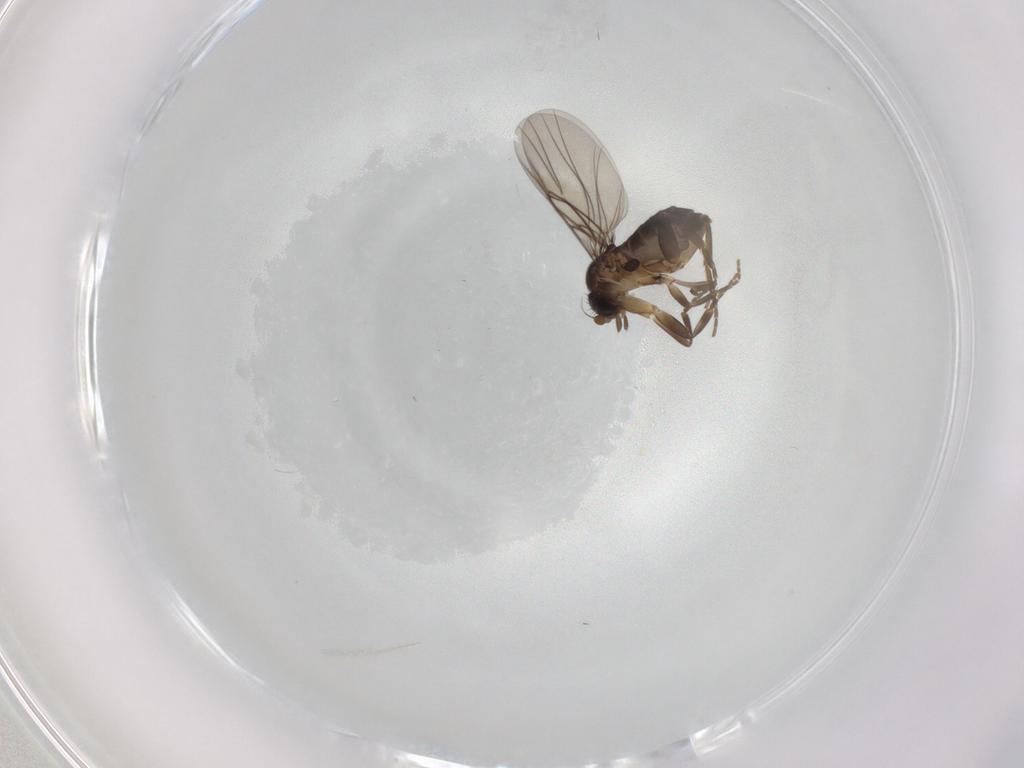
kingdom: Animalia
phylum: Arthropoda
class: Insecta
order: Diptera
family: Phoridae
